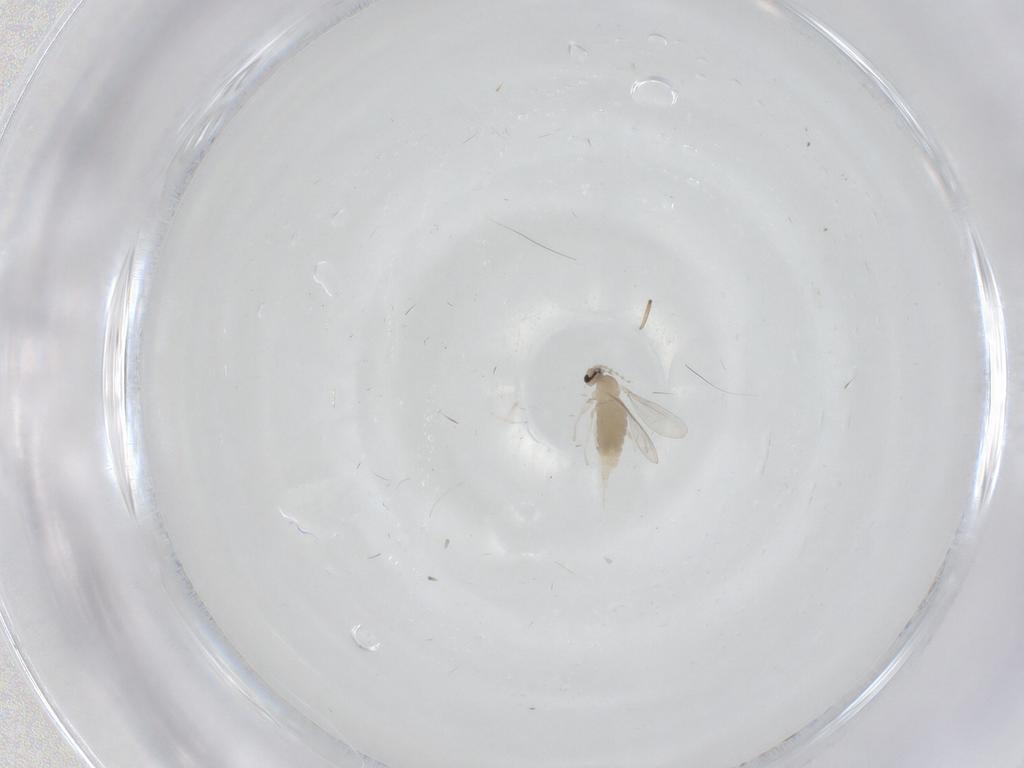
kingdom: Animalia
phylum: Arthropoda
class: Insecta
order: Diptera
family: Cecidomyiidae
